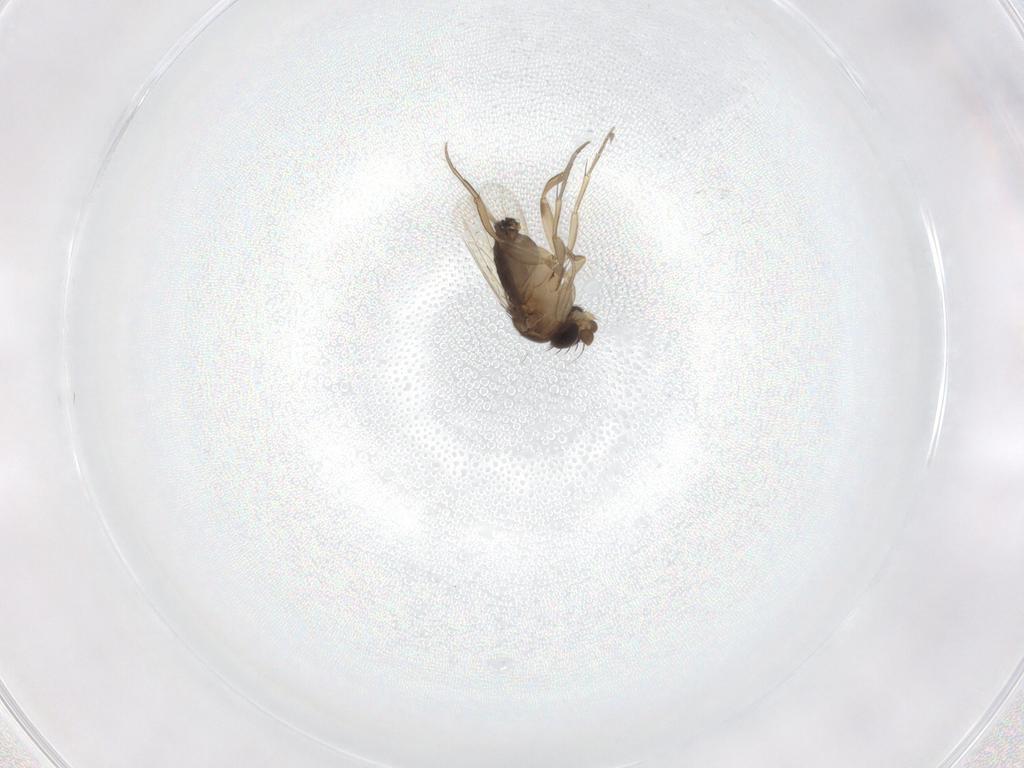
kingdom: Animalia
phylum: Arthropoda
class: Insecta
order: Diptera
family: Phoridae
